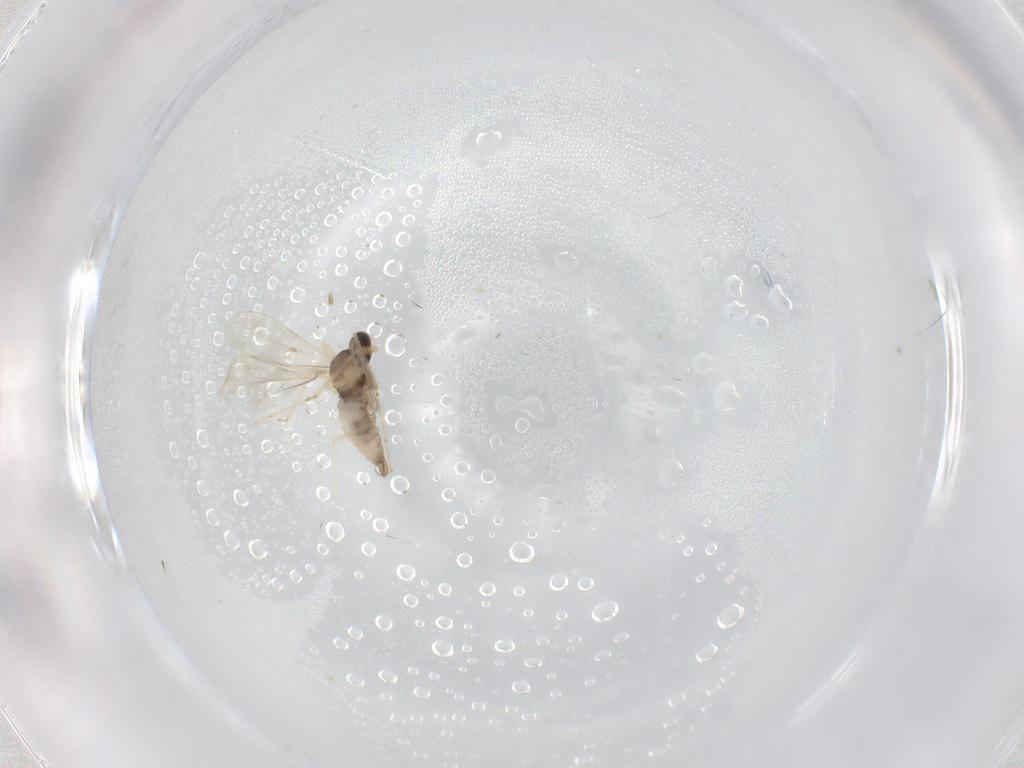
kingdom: Animalia
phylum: Arthropoda
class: Insecta
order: Diptera
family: Cecidomyiidae
